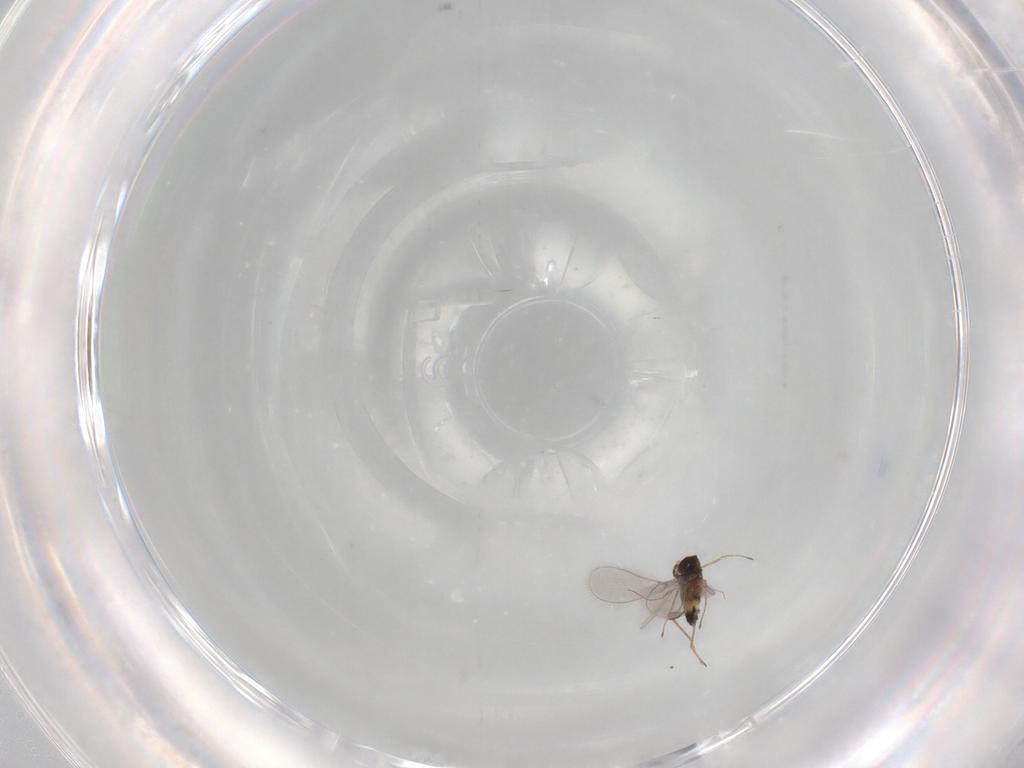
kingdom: Animalia
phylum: Arthropoda
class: Insecta
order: Hymenoptera
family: Mymaridae
